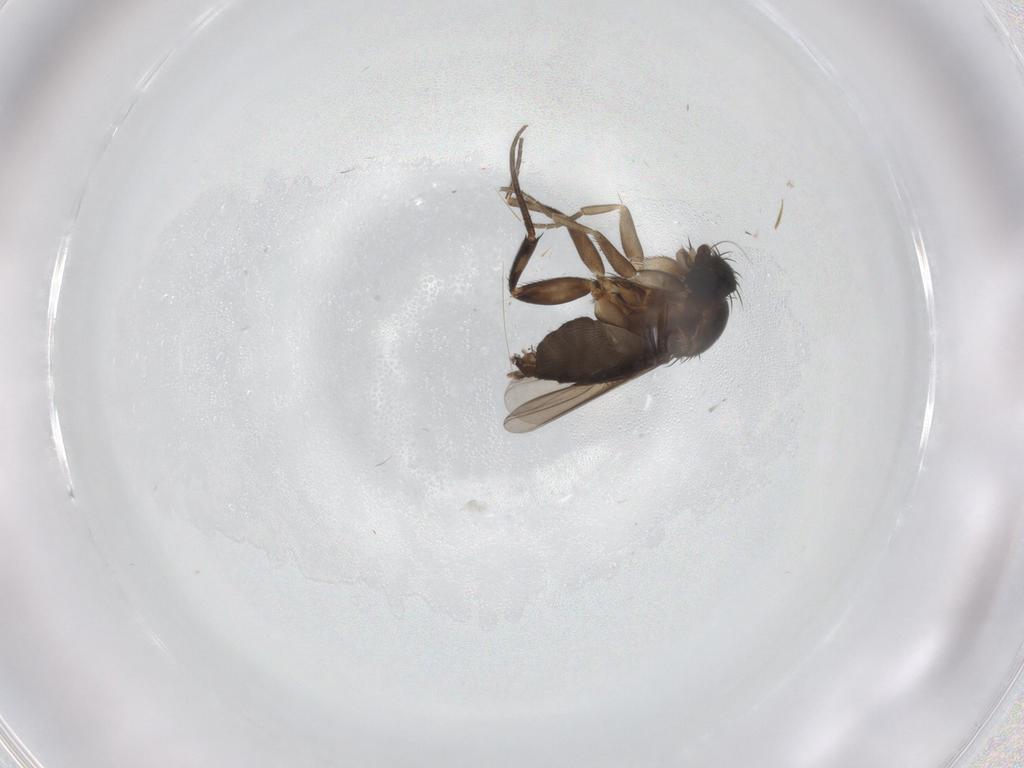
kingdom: Animalia
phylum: Arthropoda
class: Insecta
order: Diptera
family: Phoridae
